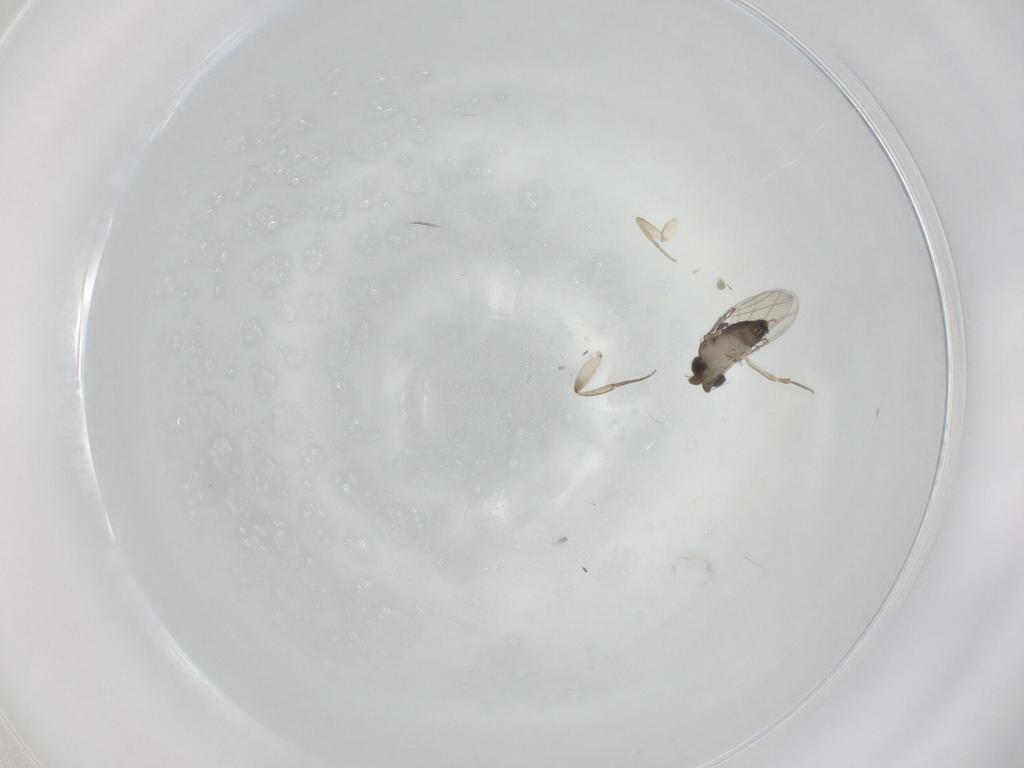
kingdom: Animalia
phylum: Arthropoda
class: Insecta
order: Diptera
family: Phoridae
